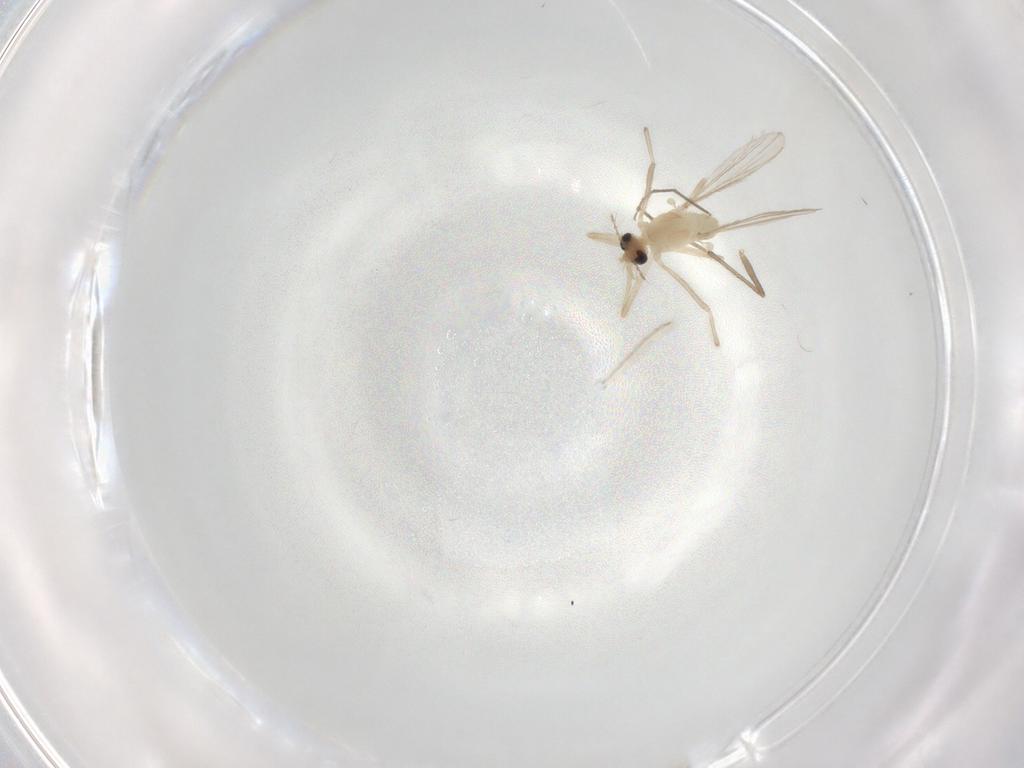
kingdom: Animalia
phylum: Arthropoda
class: Insecta
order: Diptera
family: Chironomidae
